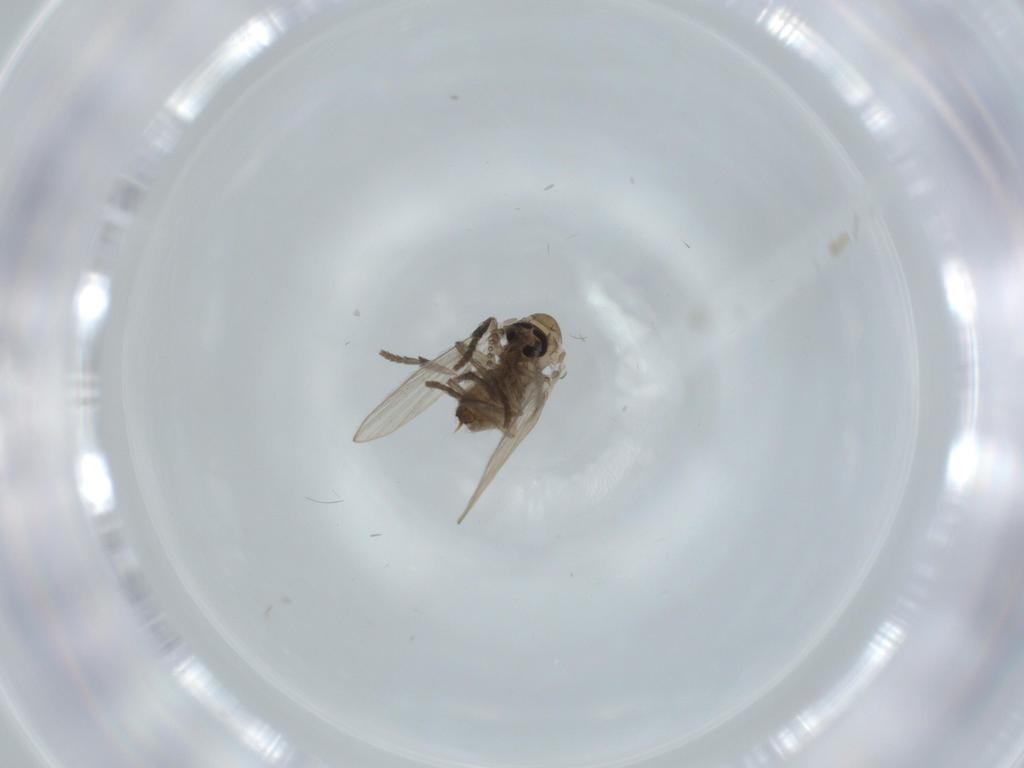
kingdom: Animalia
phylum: Arthropoda
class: Insecta
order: Diptera
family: Psychodidae
